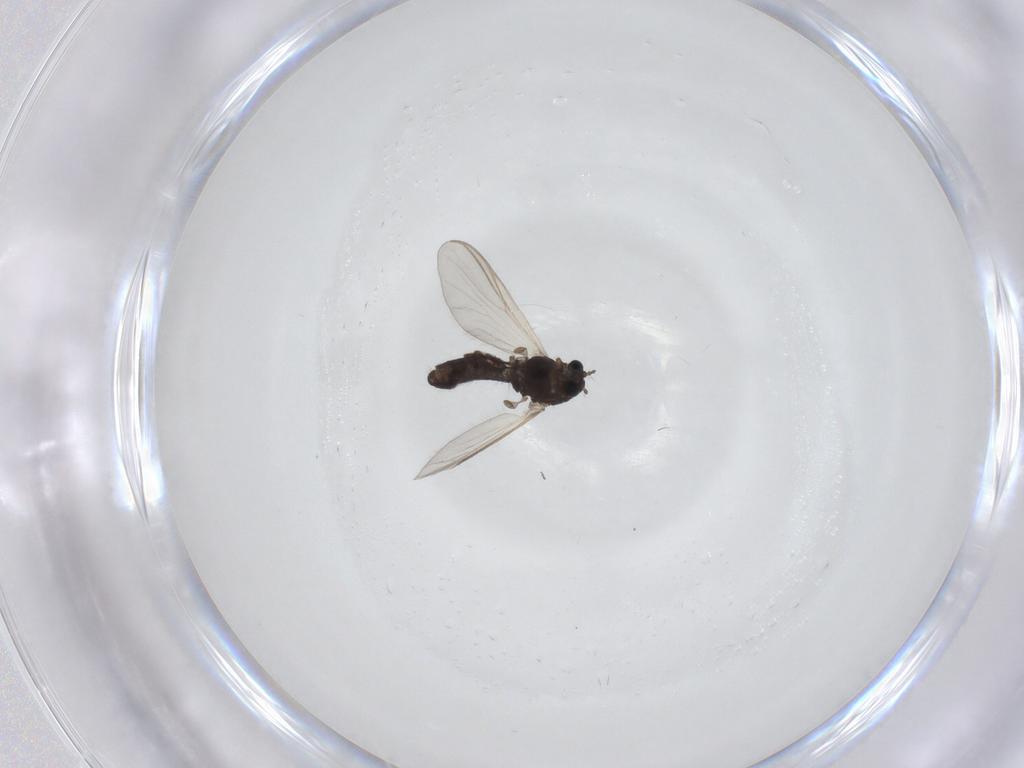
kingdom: Animalia
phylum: Arthropoda
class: Insecta
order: Diptera
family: Chironomidae
